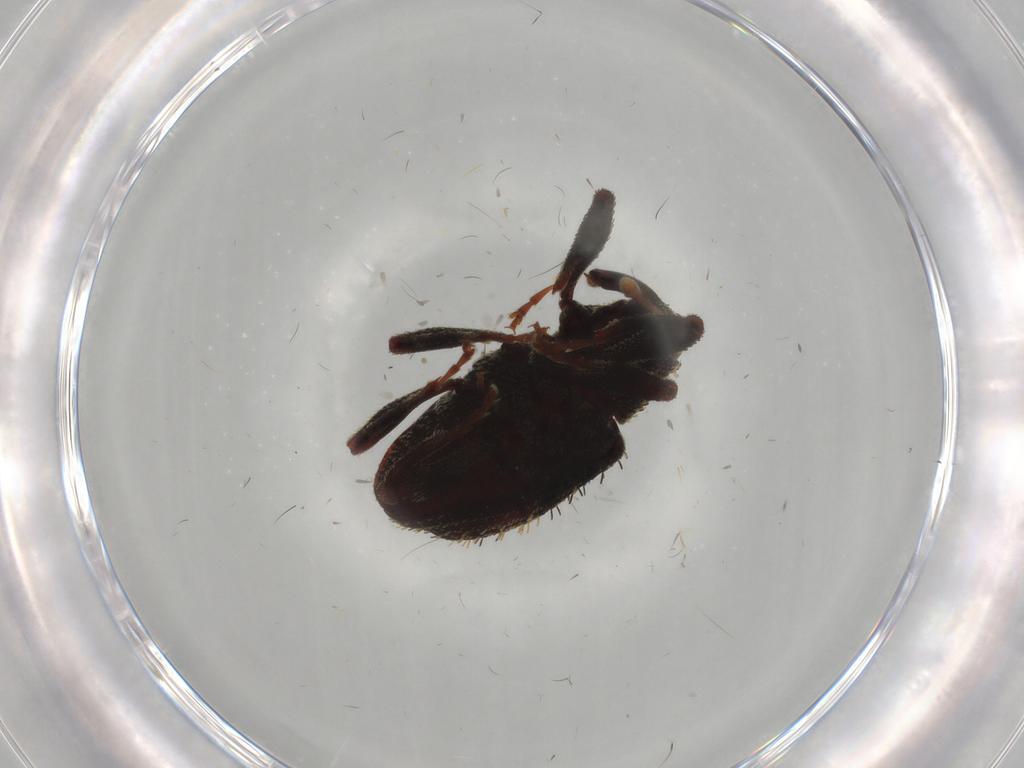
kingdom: Animalia
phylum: Arthropoda
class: Insecta
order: Coleoptera
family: Curculionidae
